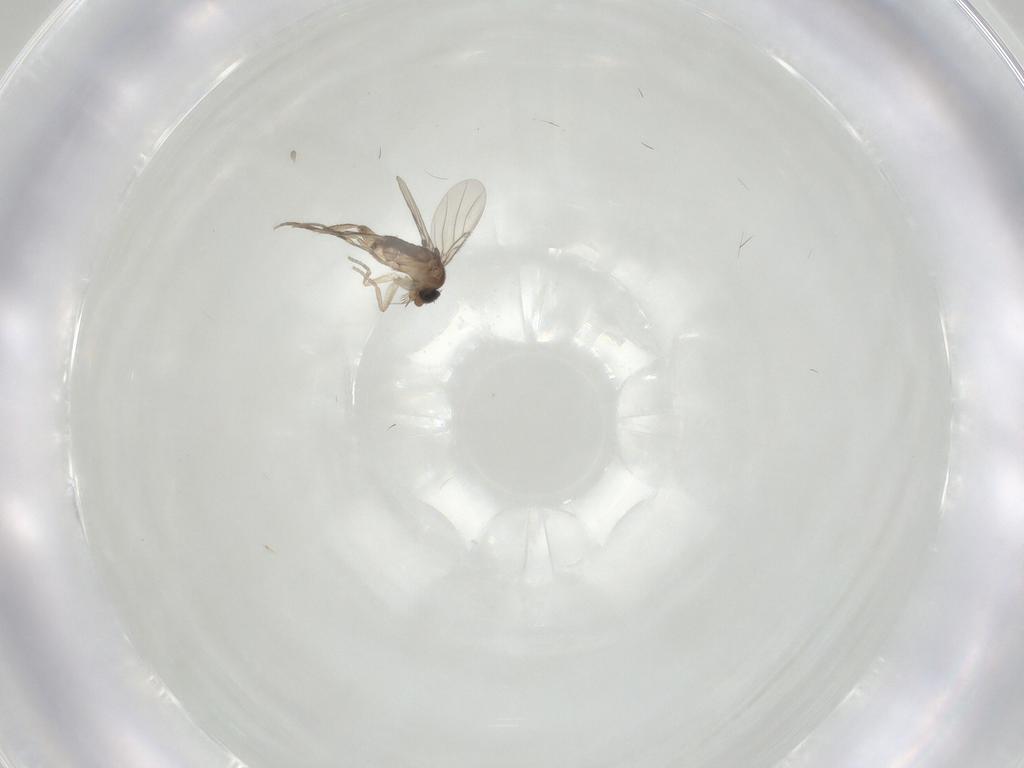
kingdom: Animalia
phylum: Arthropoda
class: Insecta
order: Diptera
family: Phoridae
